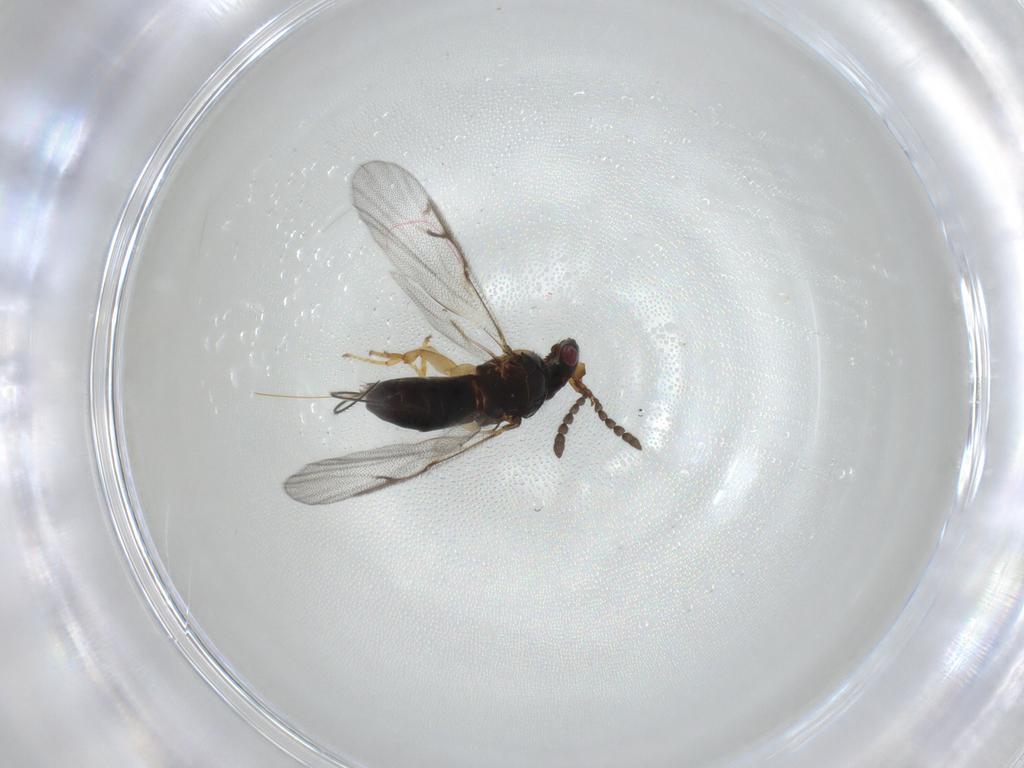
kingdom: Animalia
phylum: Arthropoda
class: Insecta
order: Hymenoptera
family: Agaonidae
